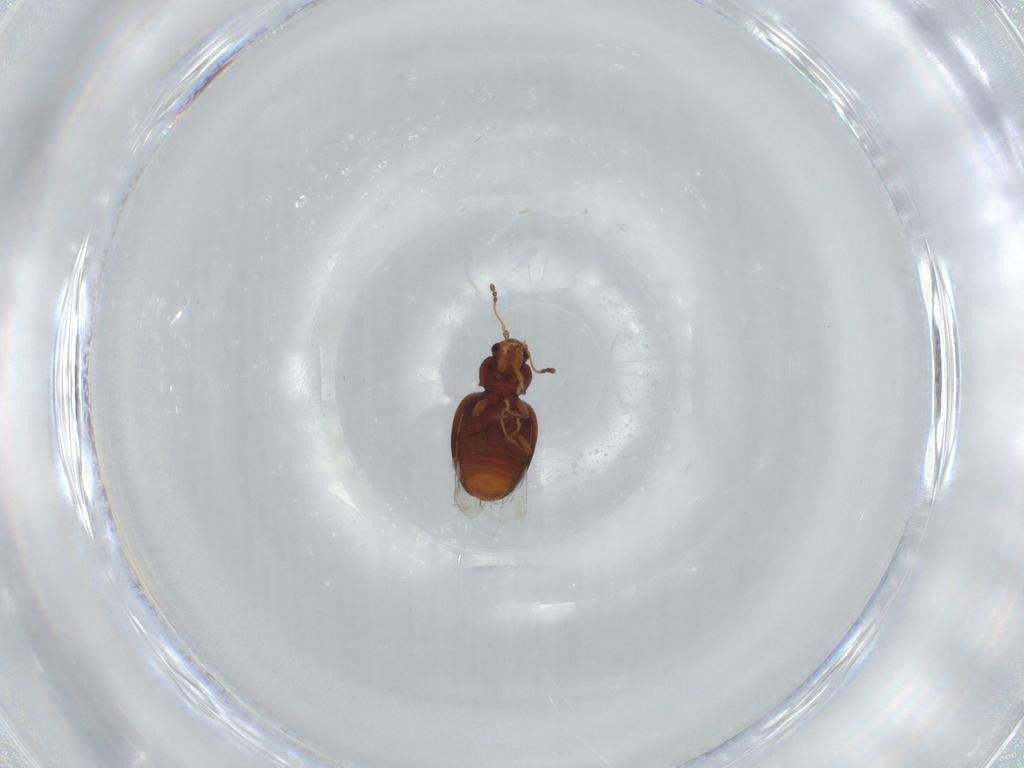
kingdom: Animalia
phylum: Arthropoda
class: Insecta
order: Coleoptera
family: Latridiidae
